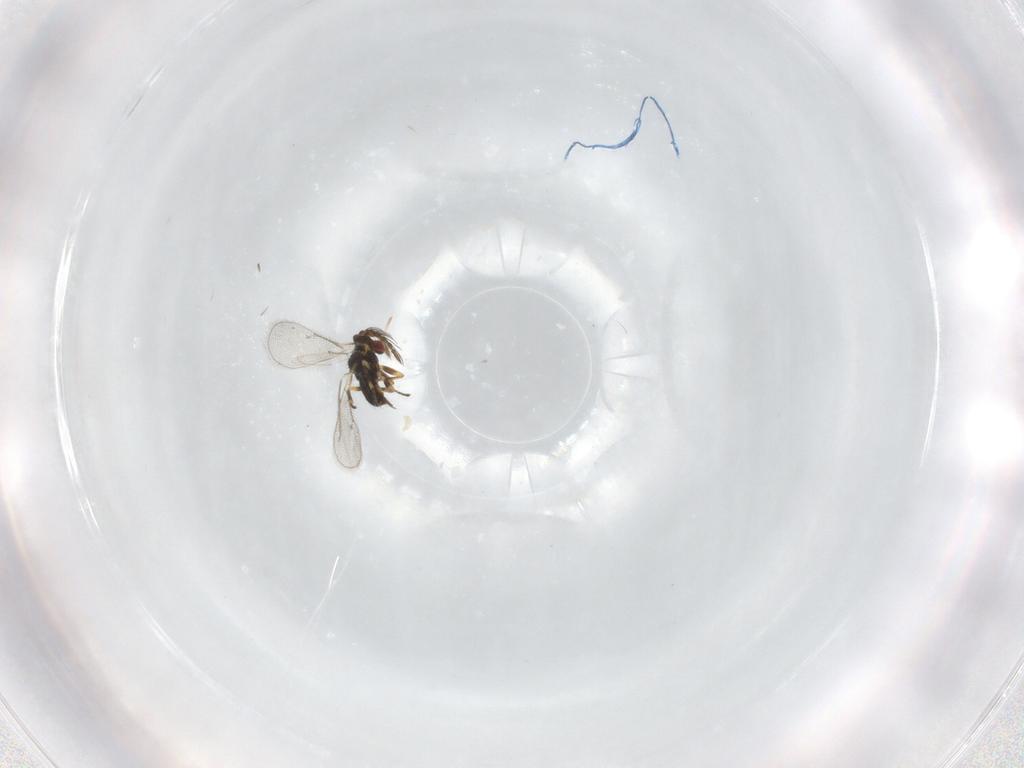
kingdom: Animalia
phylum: Arthropoda
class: Insecta
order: Hymenoptera
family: Eulophidae
